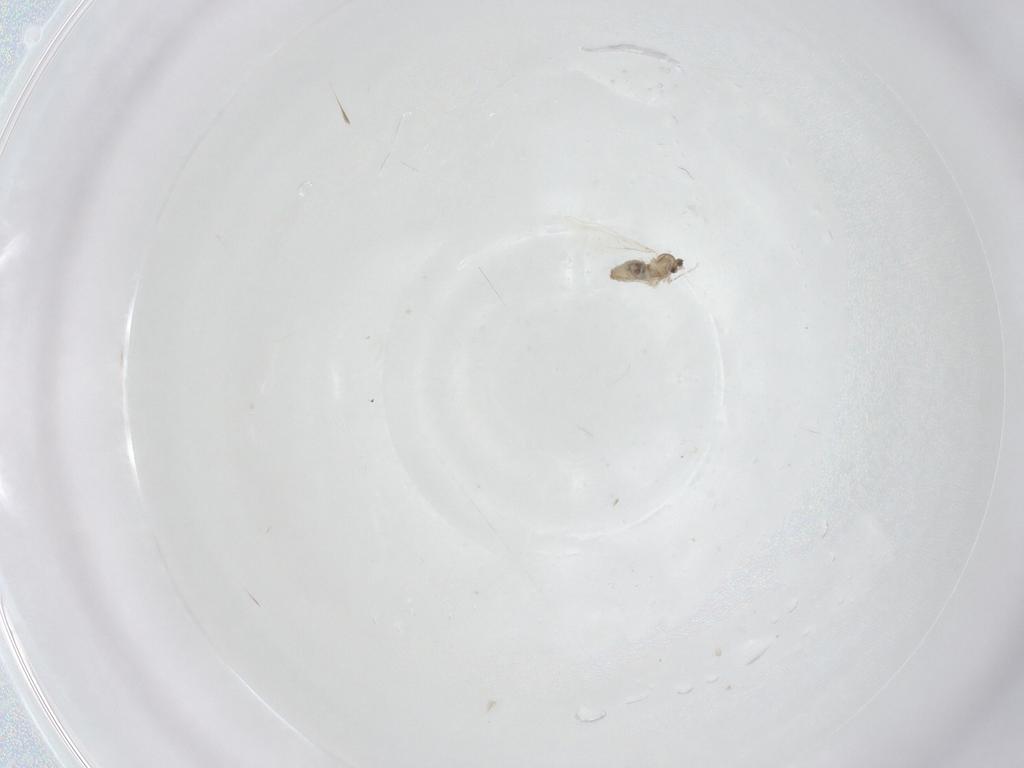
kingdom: Animalia
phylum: Arthropoda
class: Insecta
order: Diptera
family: Cecidomyiidae
